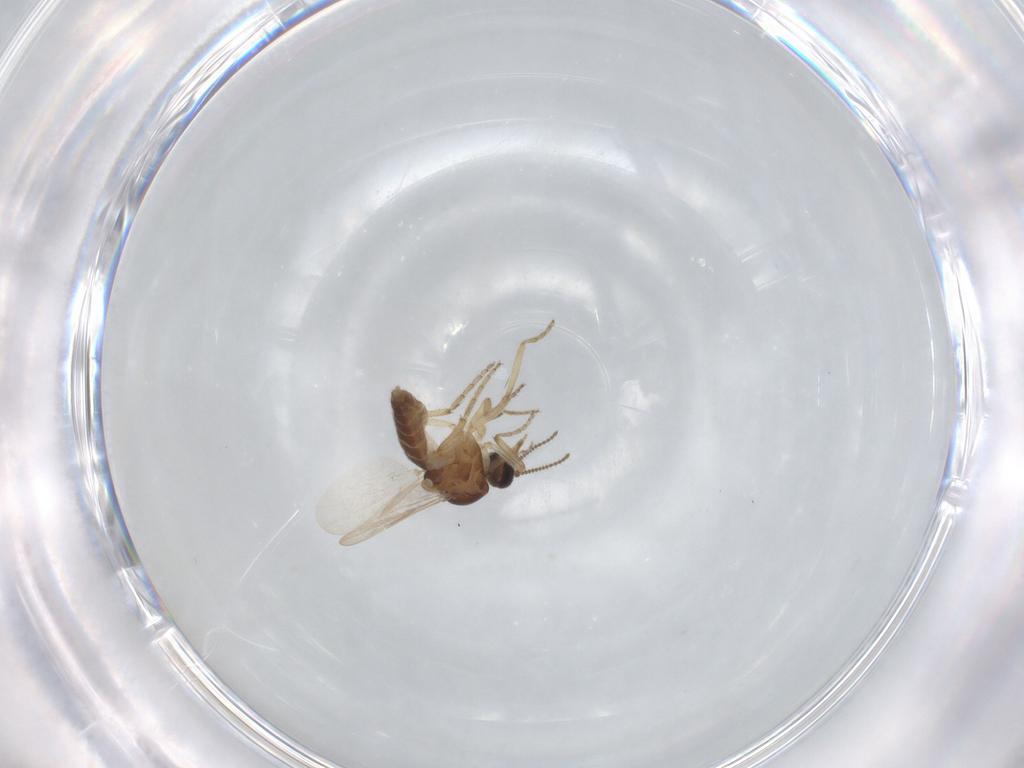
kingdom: Animalia
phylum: Arthropoda
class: Insecta
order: Diptera
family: Ceratopogonidae
